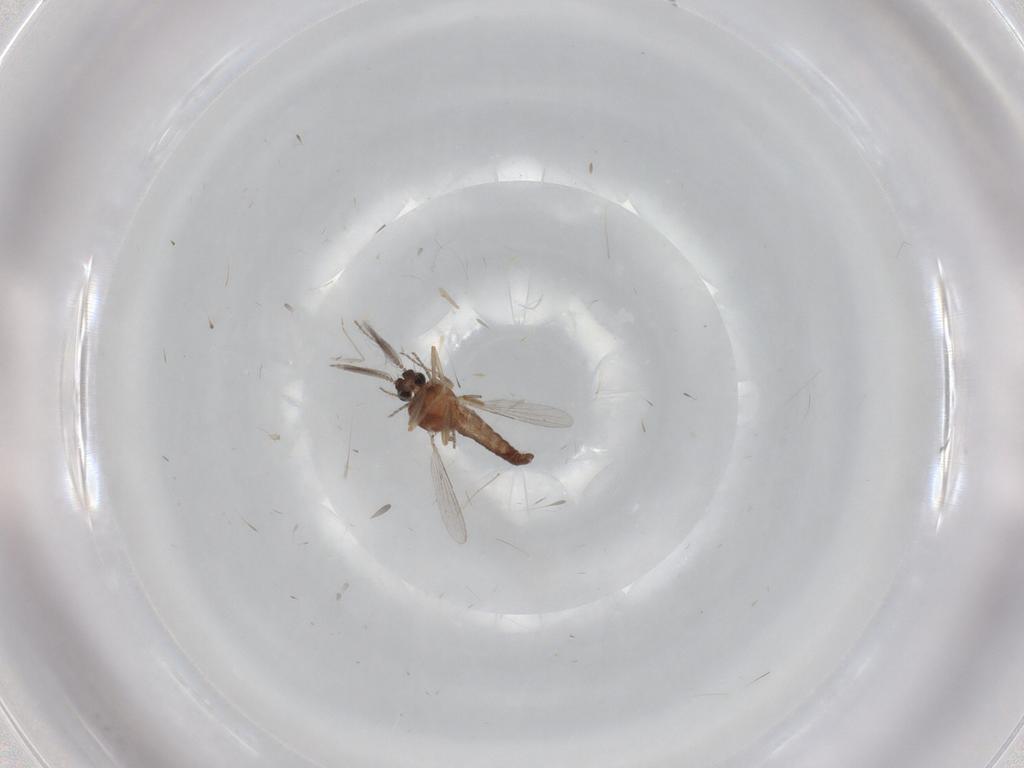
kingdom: Animalia
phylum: Arthropoda
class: Insecta
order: Diptera
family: Ceratopogonidae
